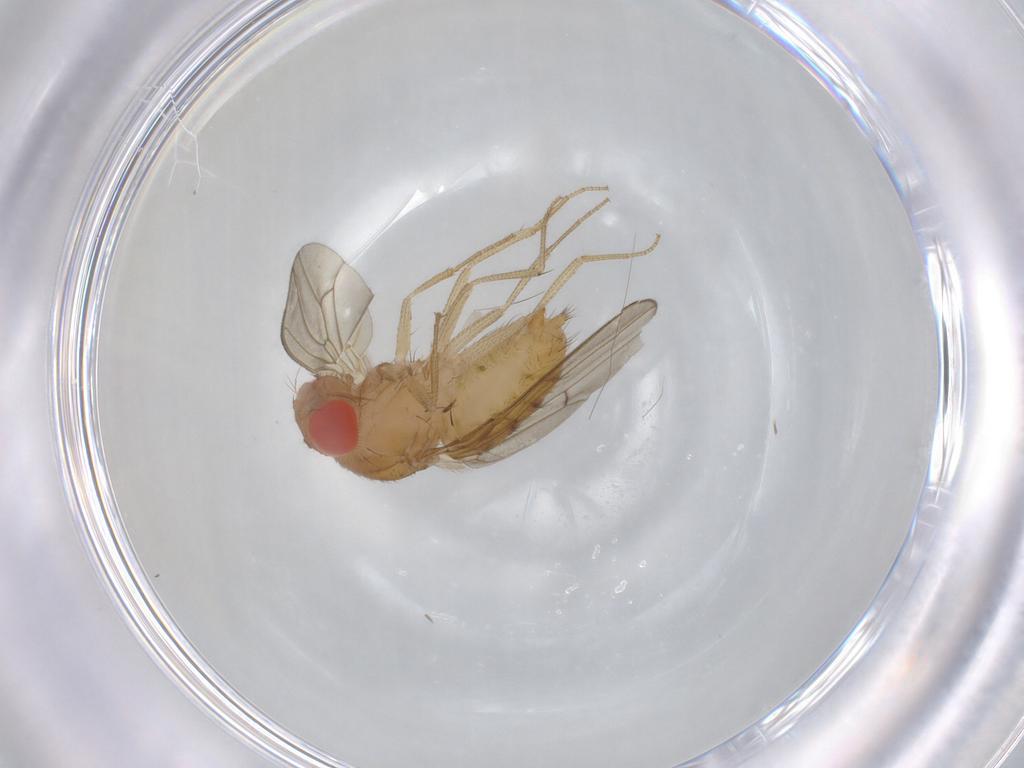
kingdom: Animalia
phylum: Arthropoda
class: Insecta
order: Diptera
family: Drosophilidae
